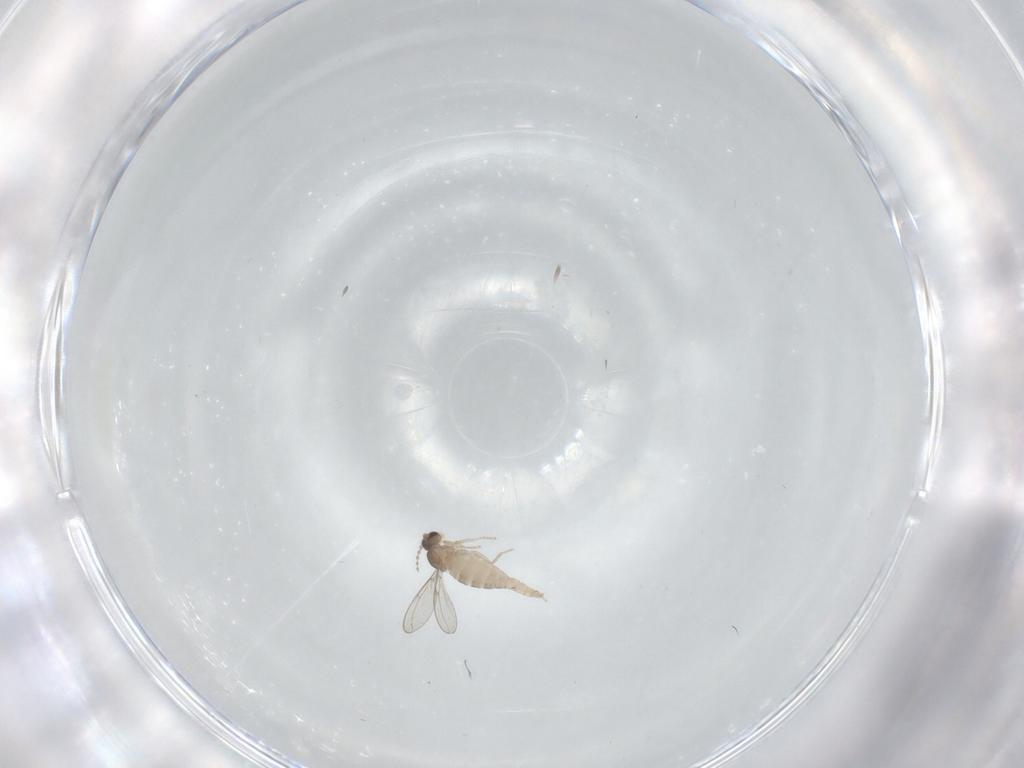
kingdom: Animalia
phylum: Arthropoda
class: Insecta
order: Diptera
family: Cecidomyiidae
